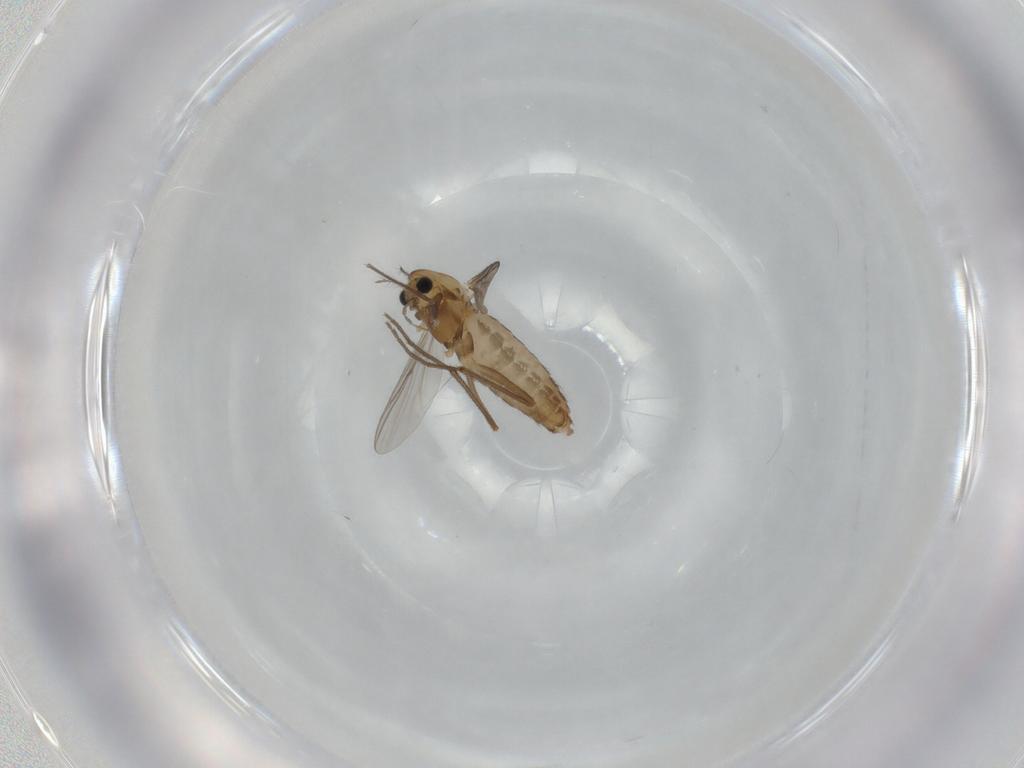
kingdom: Animalia
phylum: Arthropoda
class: Insecta
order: Diptera
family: Chironomidae
